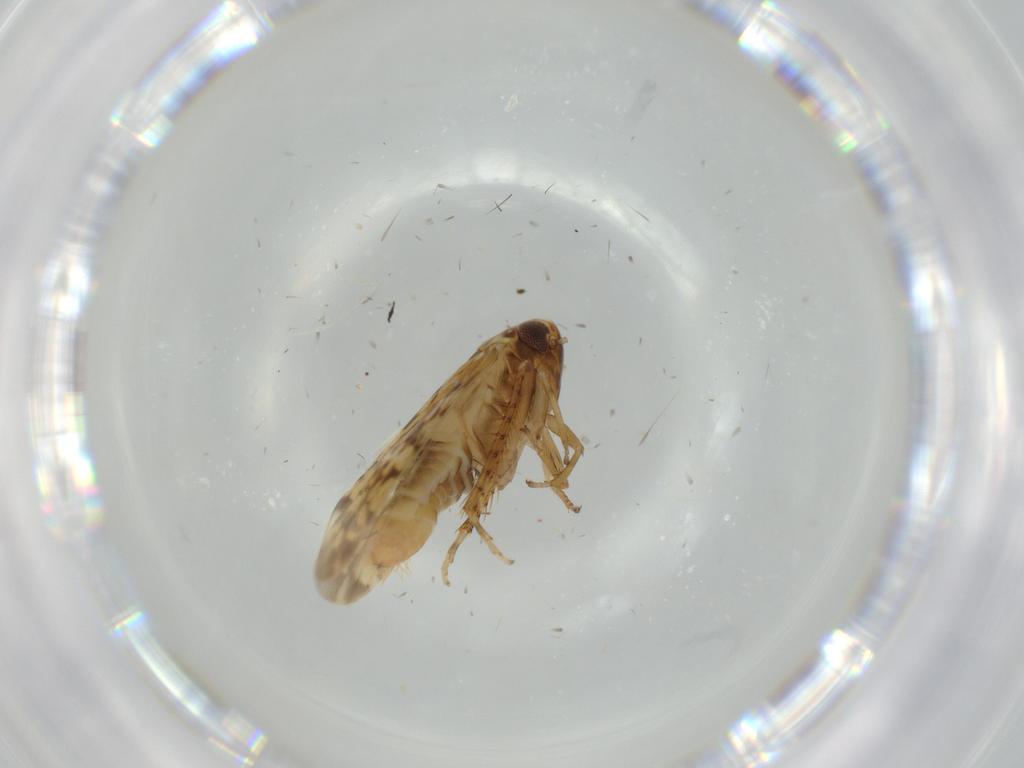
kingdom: Animalia
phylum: Arthropoda
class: Insecta
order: Hemiptera
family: Cicadellidae
